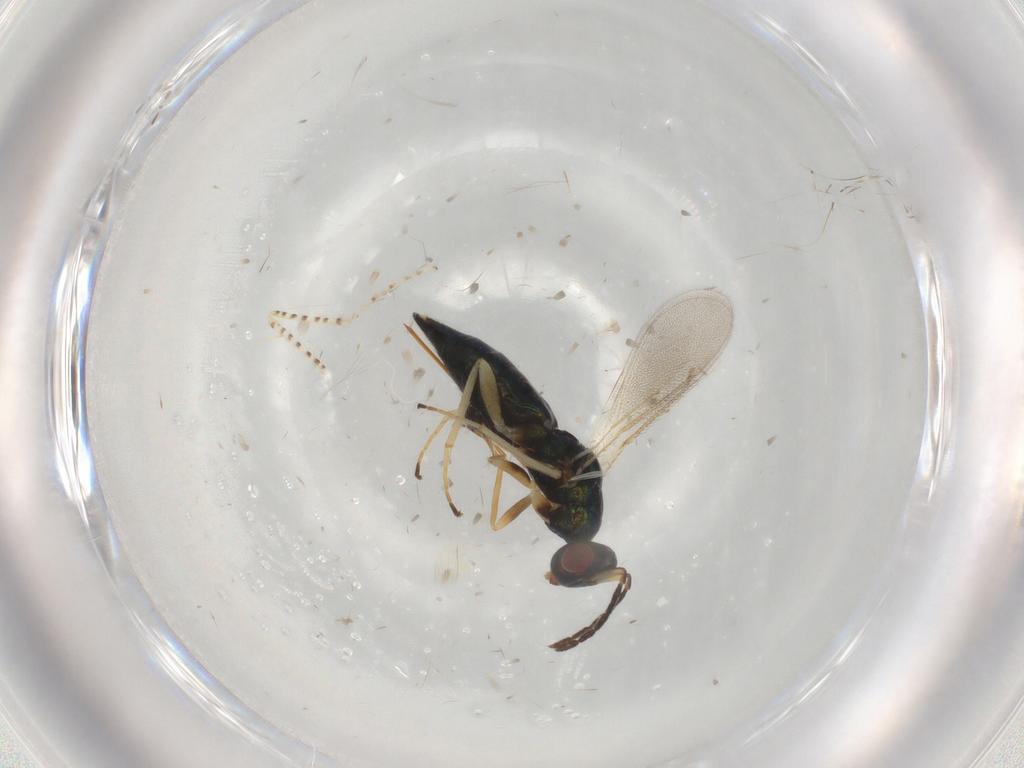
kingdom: Animalia
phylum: Arthropoda
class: Insecta
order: Hymenoptera
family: Eulophidae
